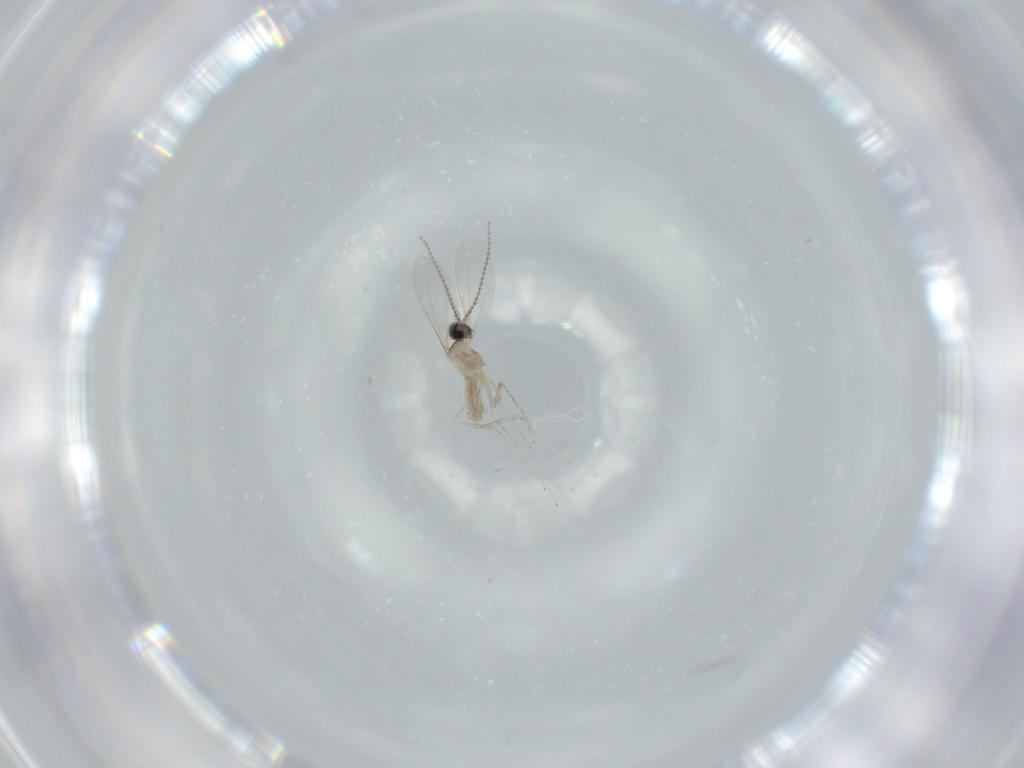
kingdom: Animalia
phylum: Arthropoda
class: Insecta
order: Diptera
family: Cecidomyiidae
